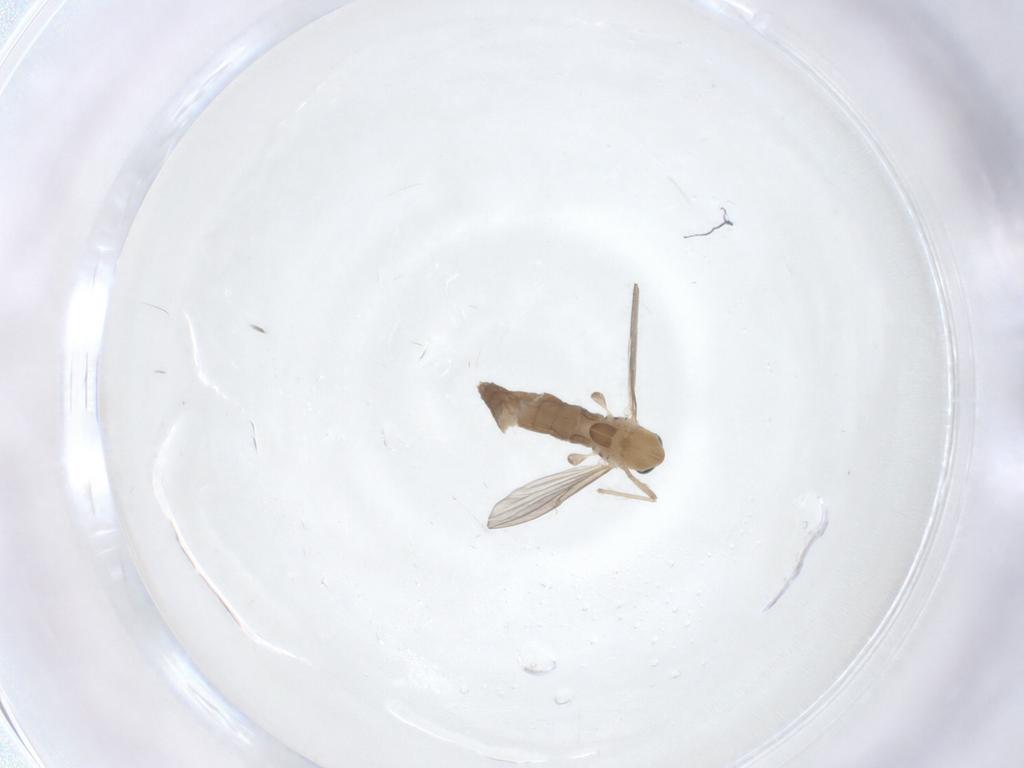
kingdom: Animalia
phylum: Arthropoda
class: Insecta
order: Diptera
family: Chironomidae
